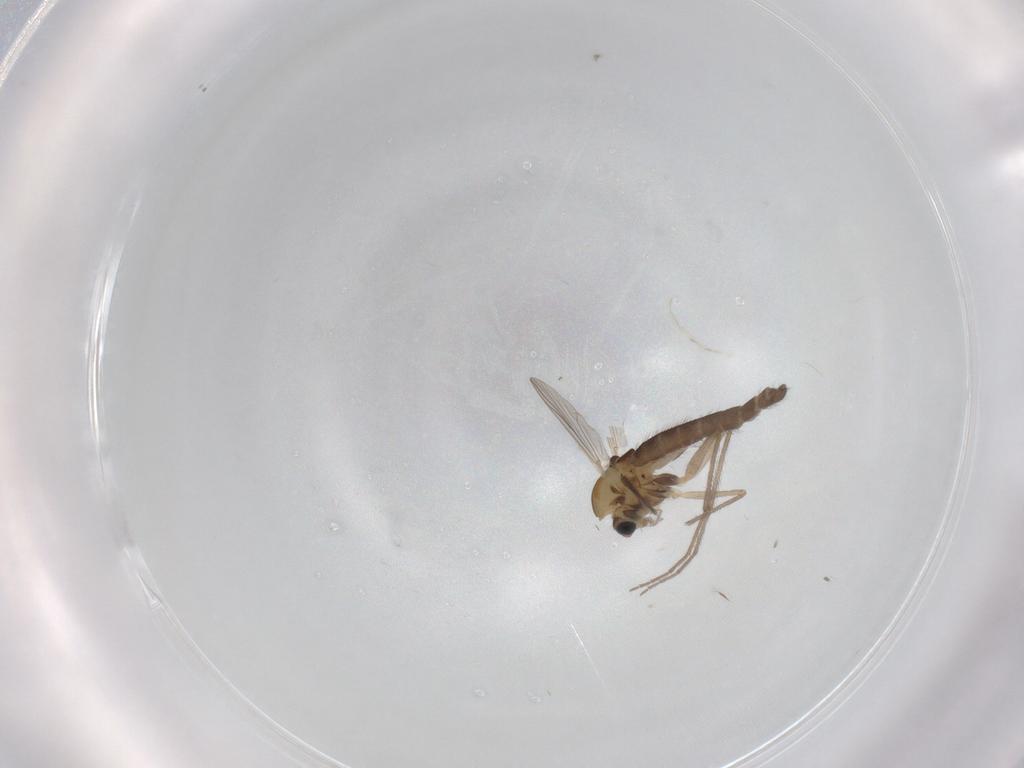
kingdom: Animalia
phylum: Arthropoda
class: Insecta
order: Diptera
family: Chironomidae
